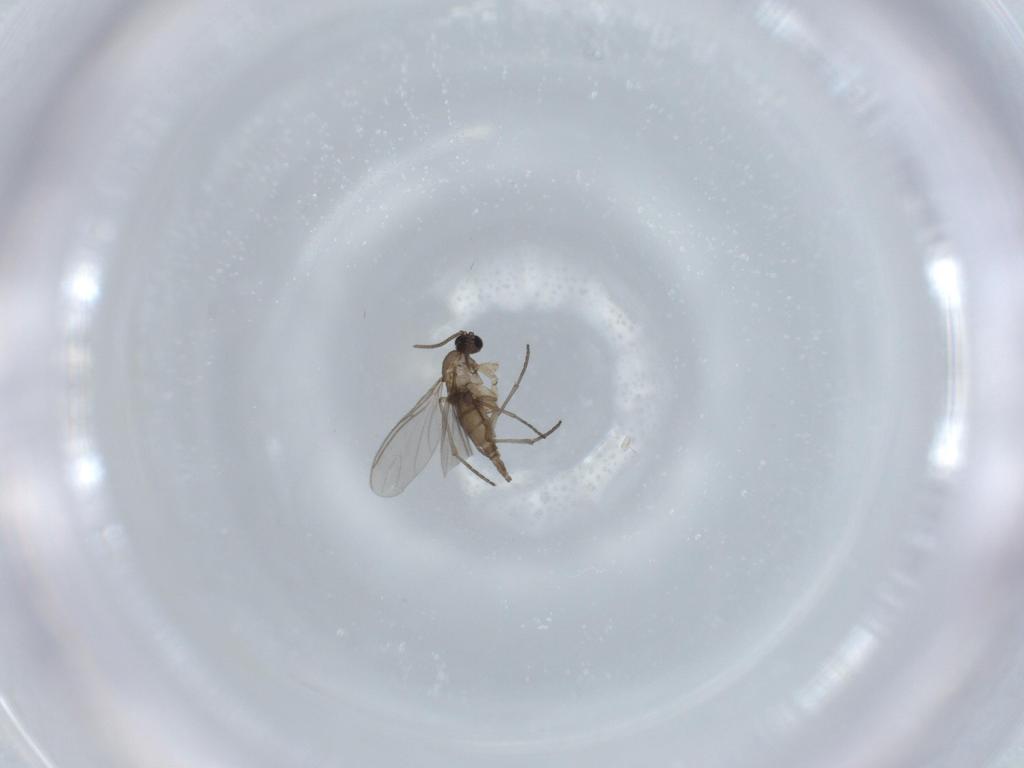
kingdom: Animalia
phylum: Arthropoda
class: Insecta
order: Diptera
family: Sciaridae
